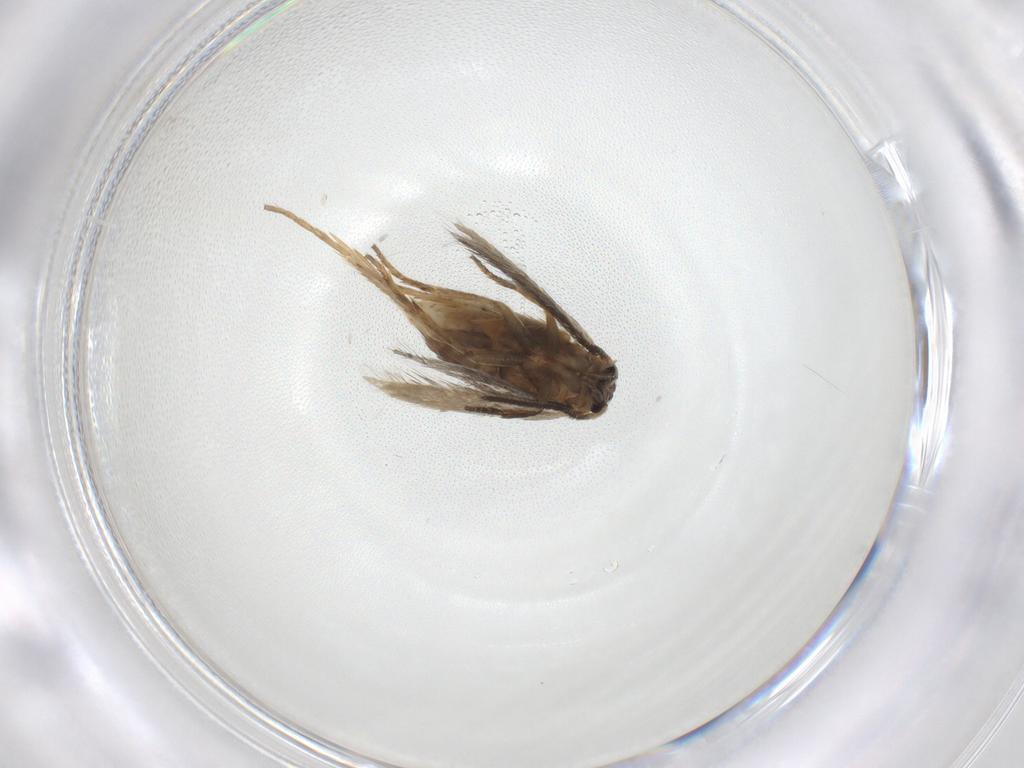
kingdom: Animalia
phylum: Arthropoda
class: Insecta
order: Lepidoptera
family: Nepticulidae
